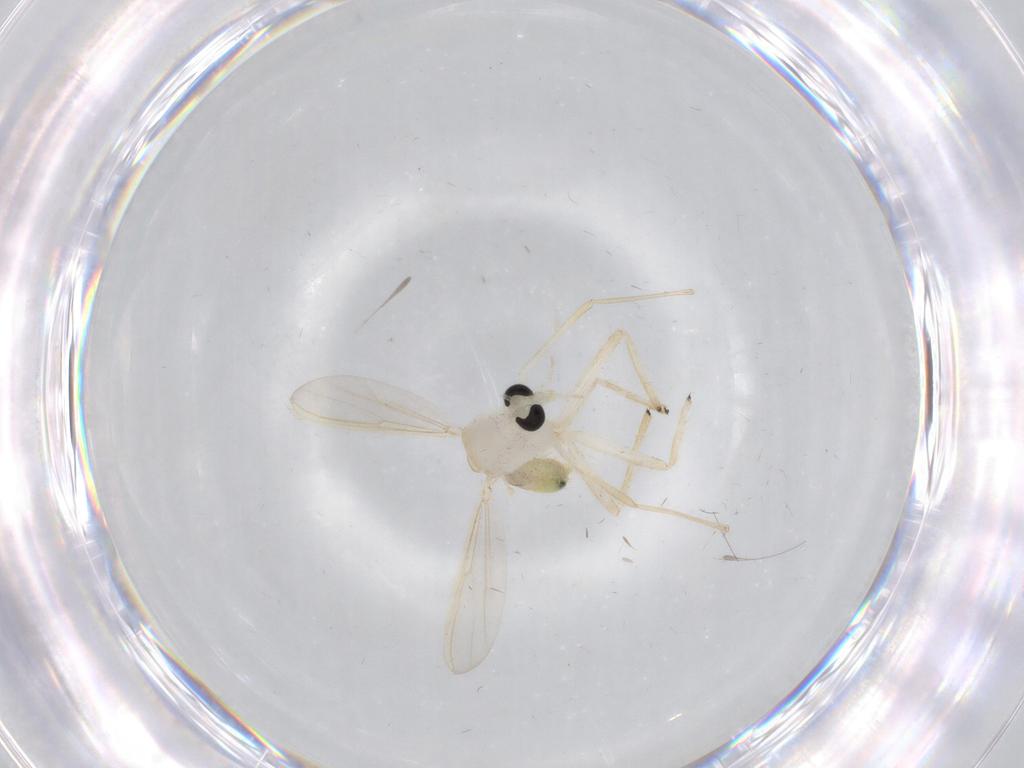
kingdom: Animalia
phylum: Arthropoda
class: Insecta
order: Diptera
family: Chironomidae
